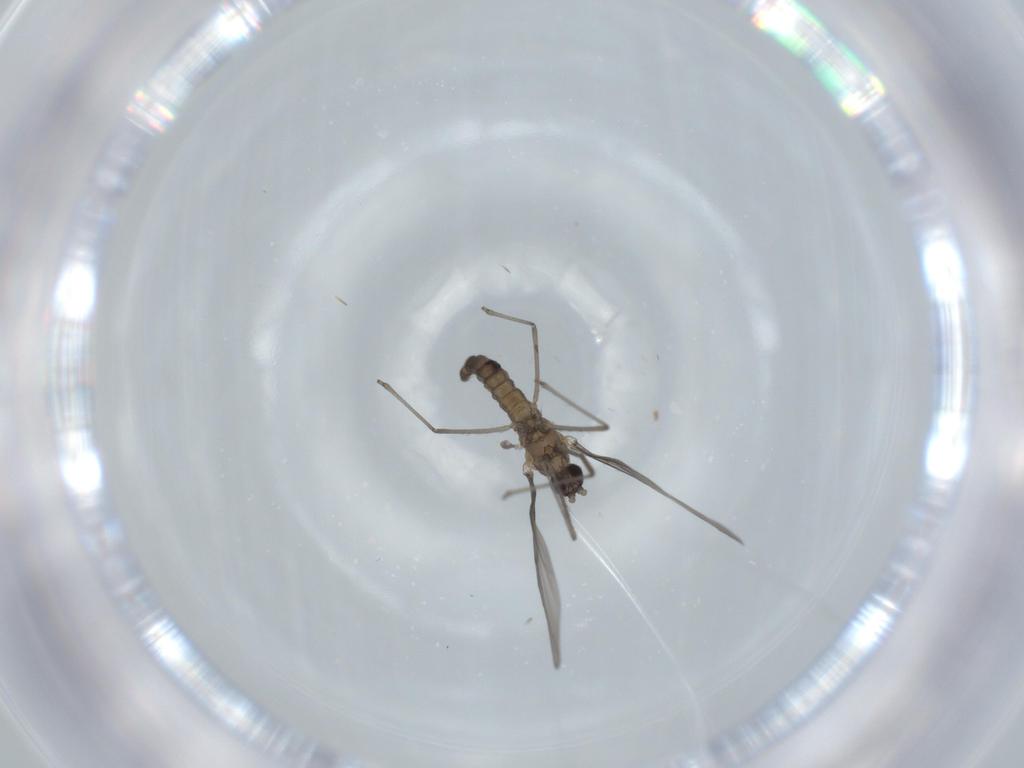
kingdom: Animalia
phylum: Arthropoda
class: Insecta
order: Diptera
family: Cecidomyiidae
